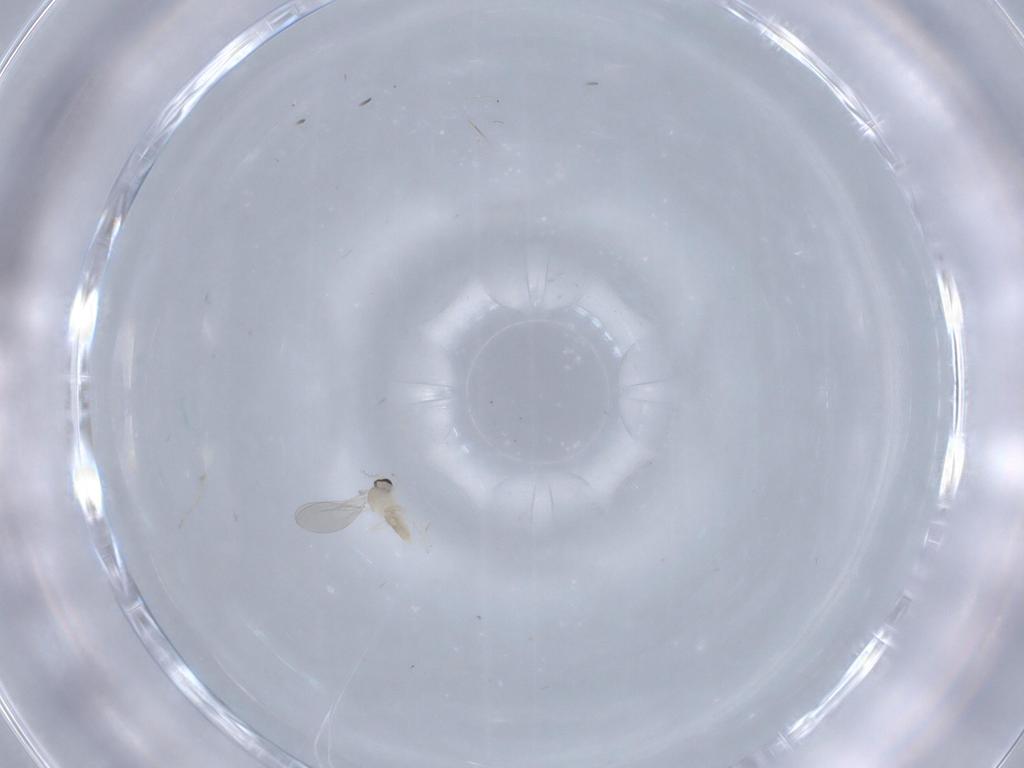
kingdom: Animalia
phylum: Arthropoda
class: Insecta
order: Diptera
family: Cecidomyiidae
